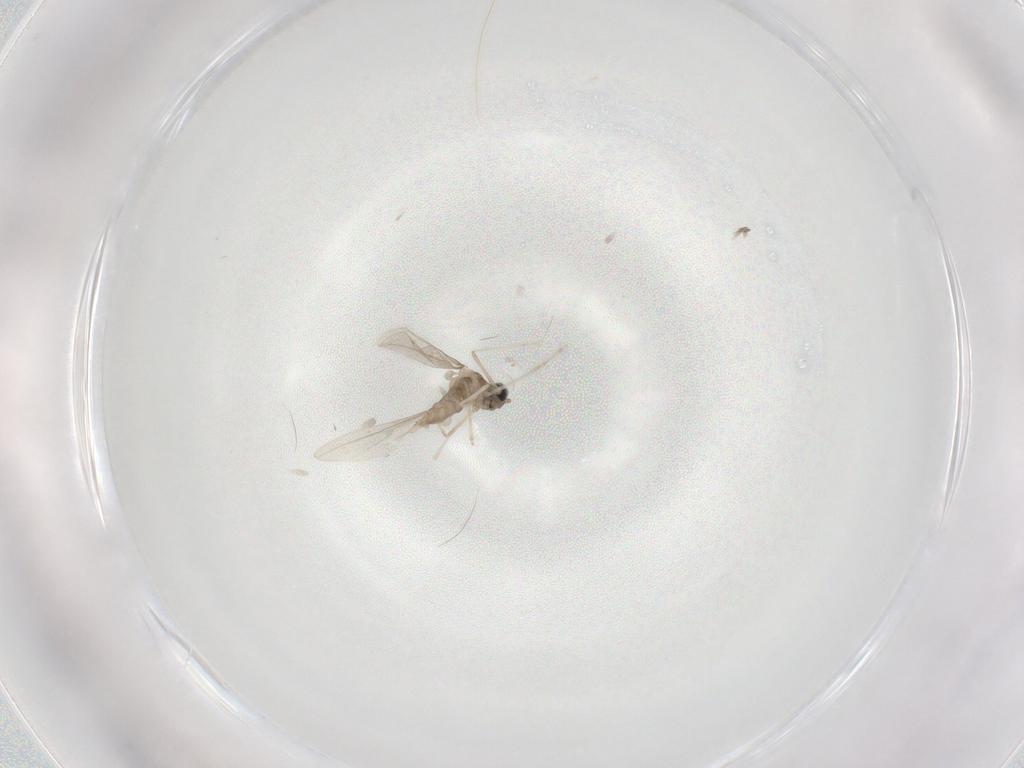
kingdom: Animalia
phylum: Arthropoda
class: Insecta
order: Diptera
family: Cecidomyiidae
